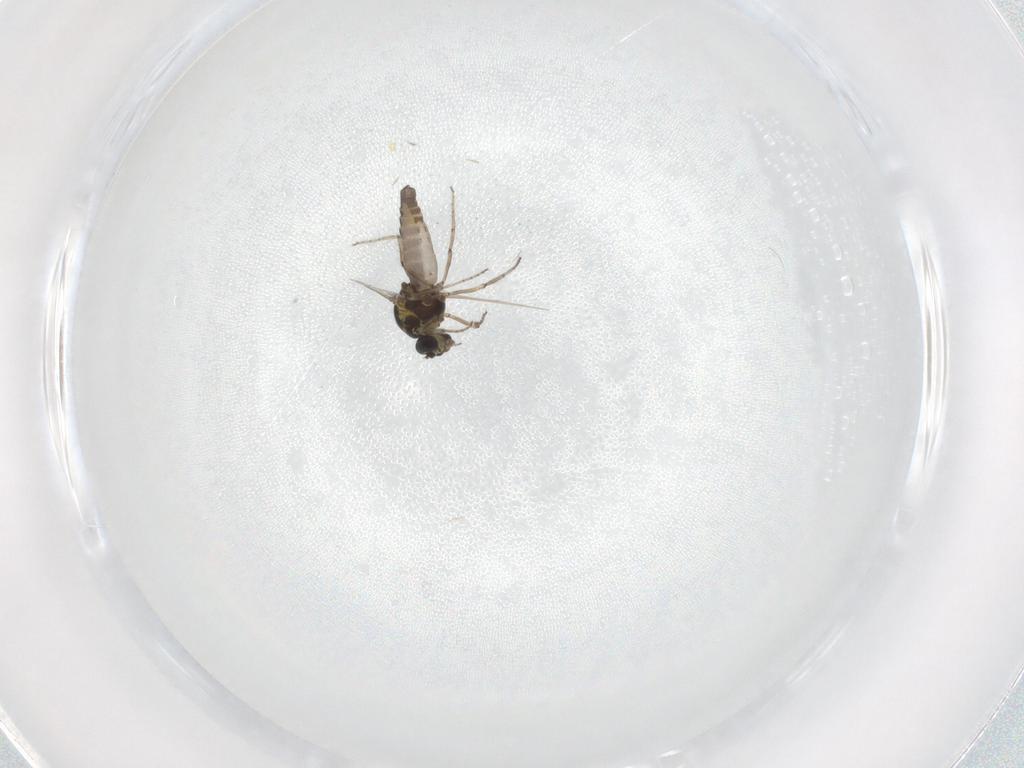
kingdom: Animalia
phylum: Arthropoda
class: Insecta
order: Diptera
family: Ceratopogonidae
